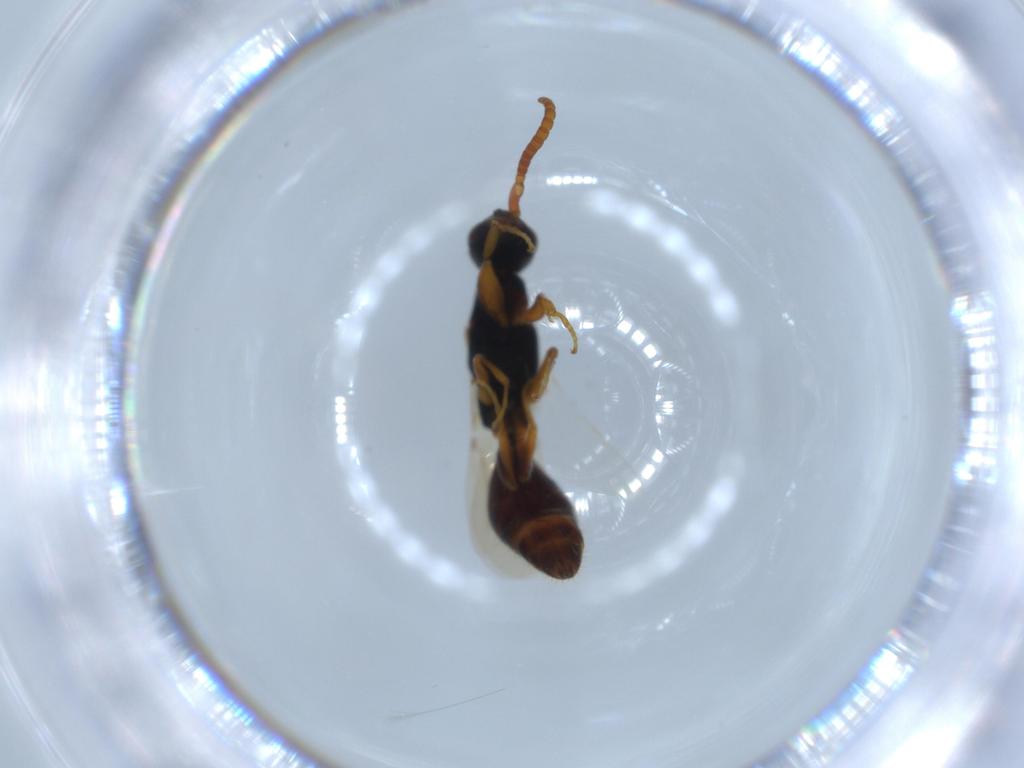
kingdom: Animalia
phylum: Arthropoda
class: Insecta
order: Hymenoptera
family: Bethylidae
